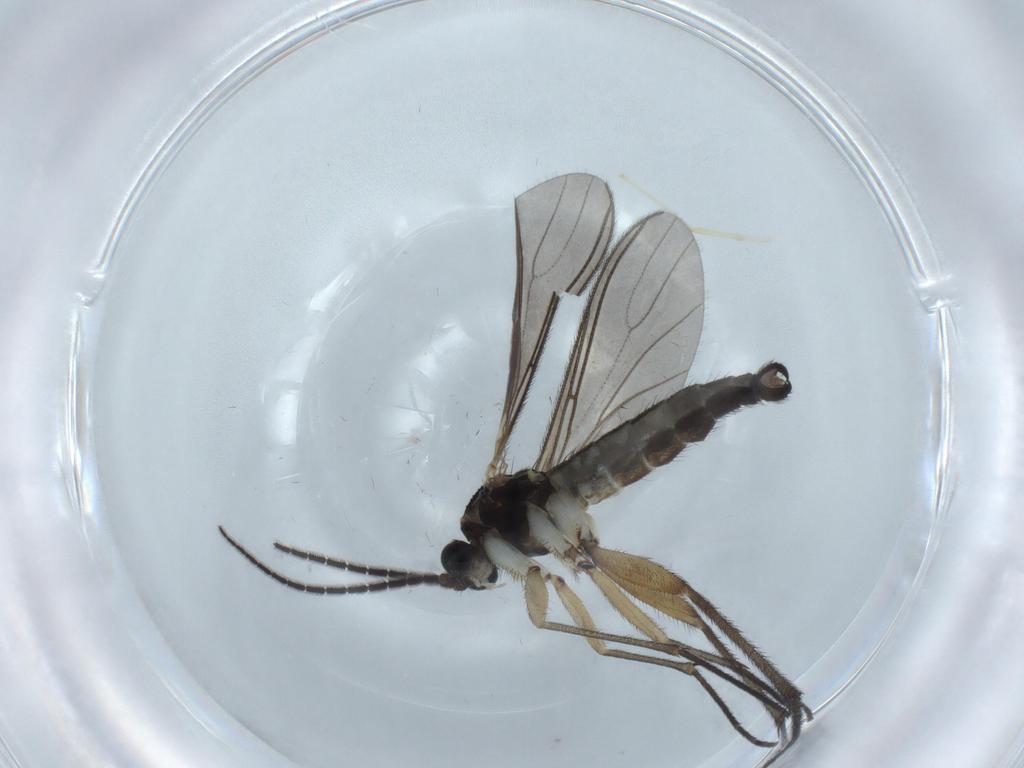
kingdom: Animalia
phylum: Arthropoda
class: Insecta
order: Diptera
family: Sciaridae
